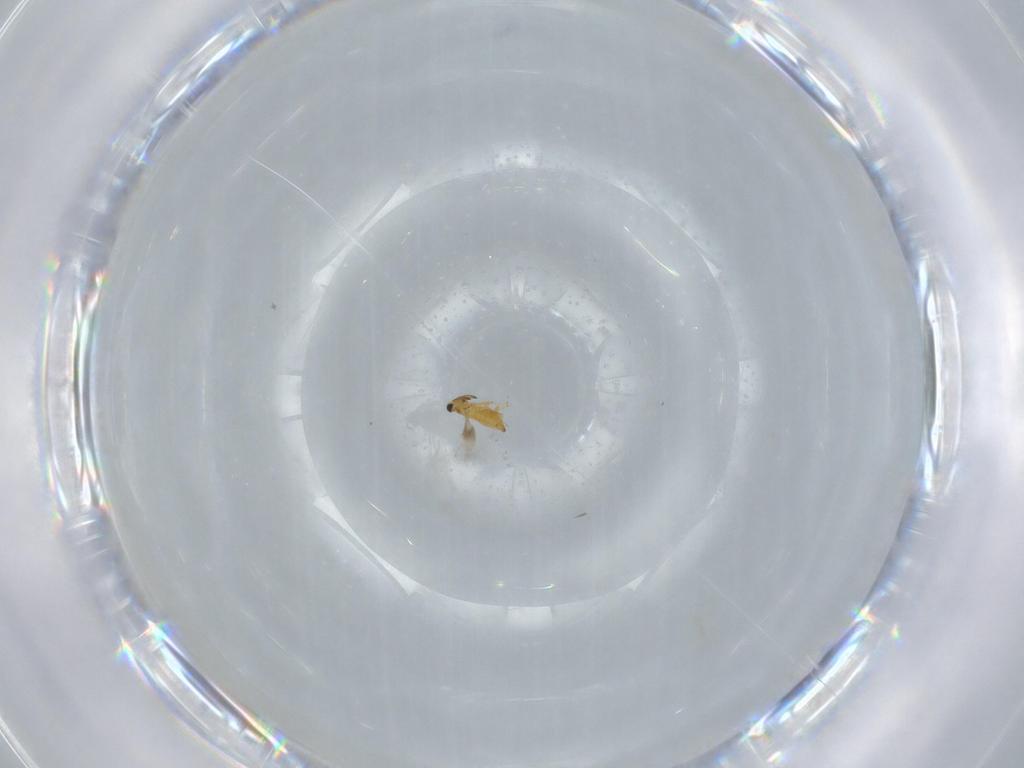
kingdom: Animalia
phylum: Arthropoda
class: Insecta
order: Hymenoptera
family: Signiphoridae
